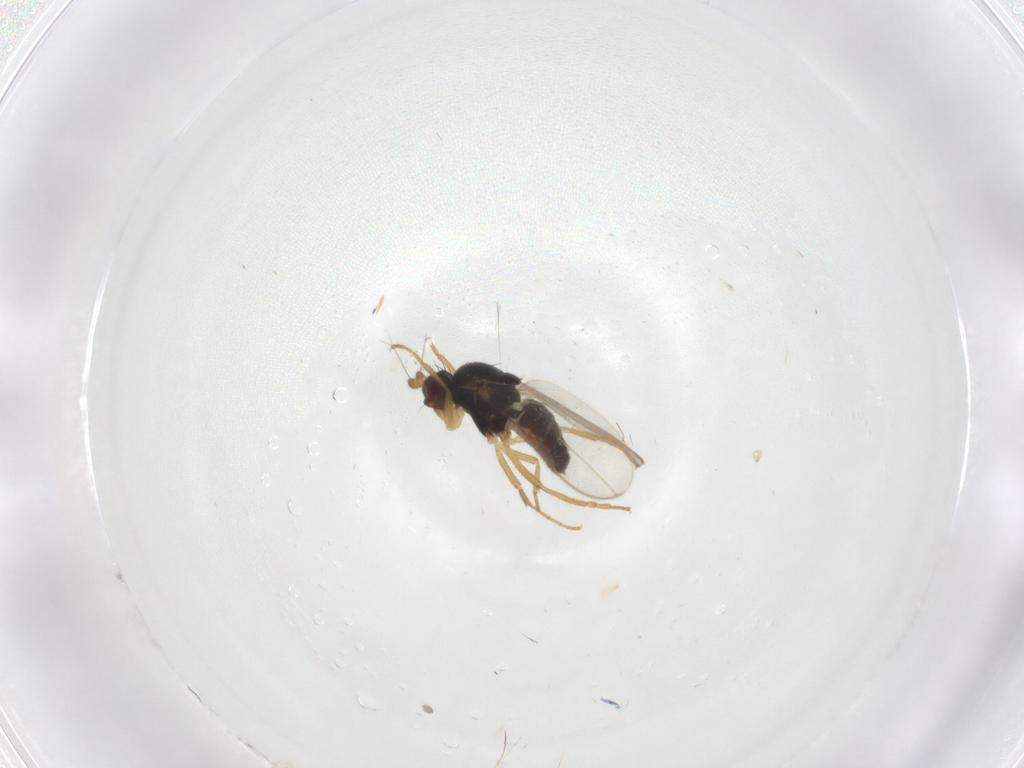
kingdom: Animalia
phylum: Arthropoda
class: Insecta
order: Diptera
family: Sphaeroceridae
